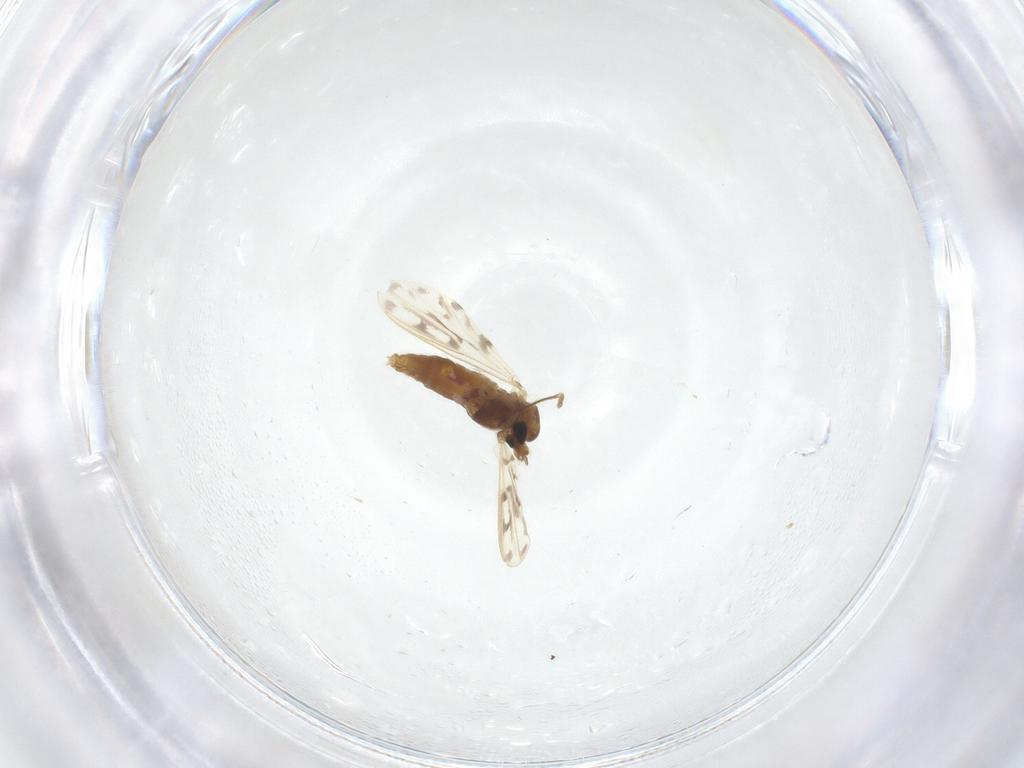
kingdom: Animalia
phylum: Arthropoda
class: Insecta
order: Diptera
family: Chironomidae
